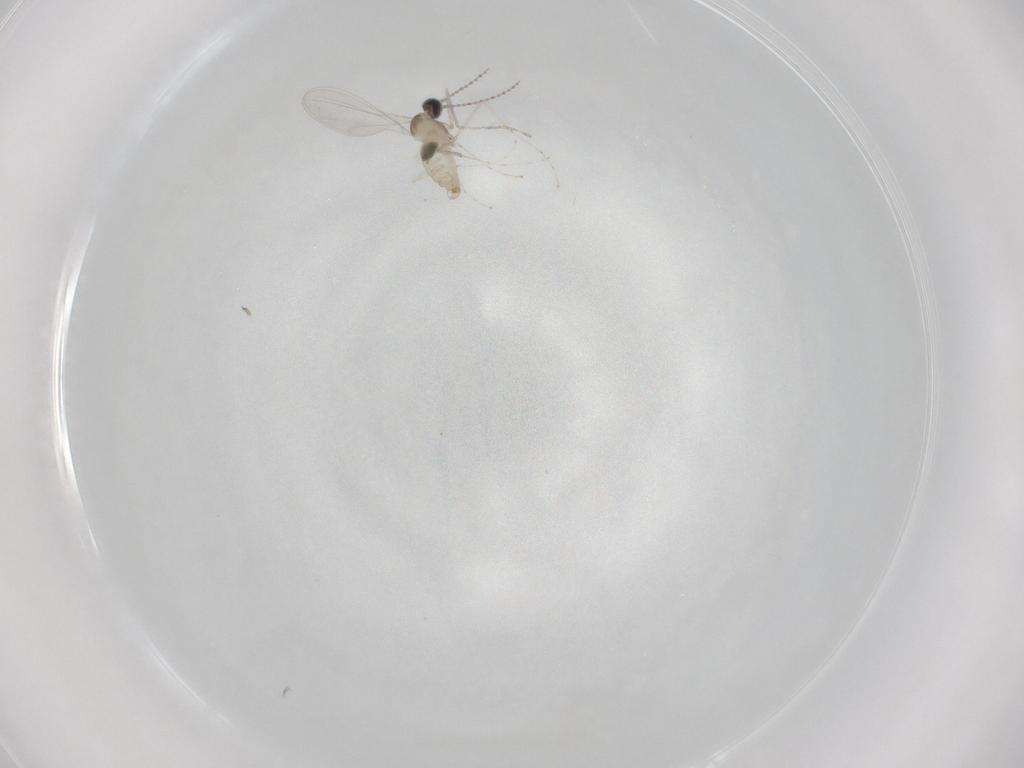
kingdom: Animalia
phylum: Arthropoda
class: Insecta
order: Diptera
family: Cecidomyiidae
